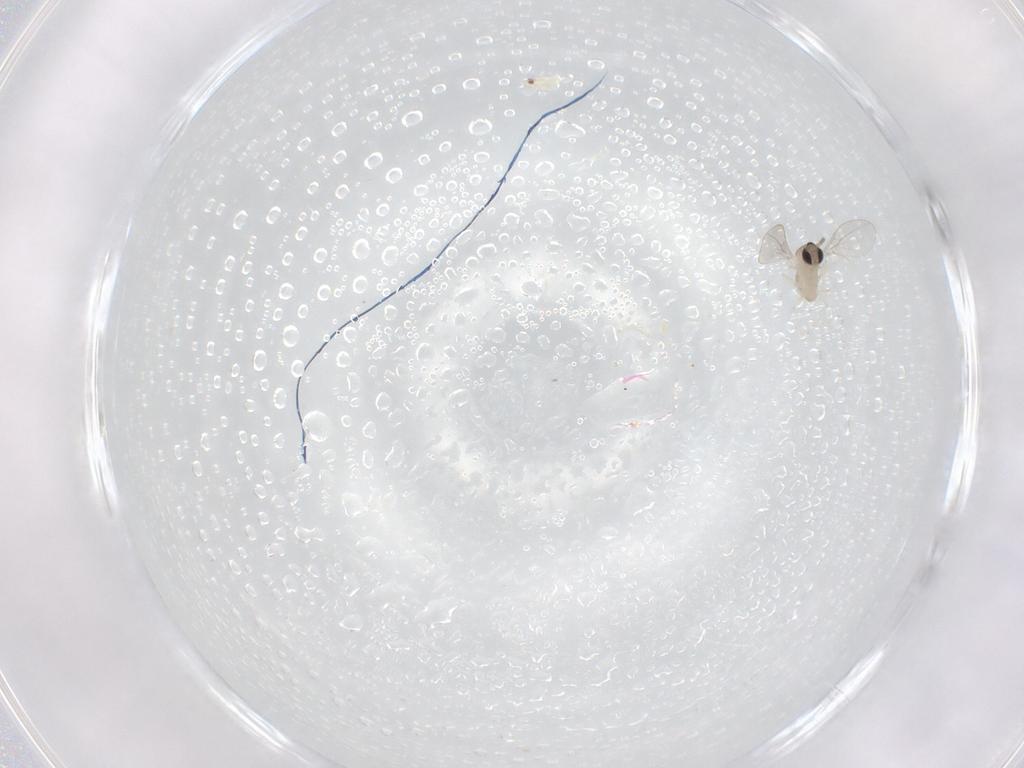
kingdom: Animalia
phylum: Arthropoda
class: Insecta
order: Diptera
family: Cecidomyiidae
